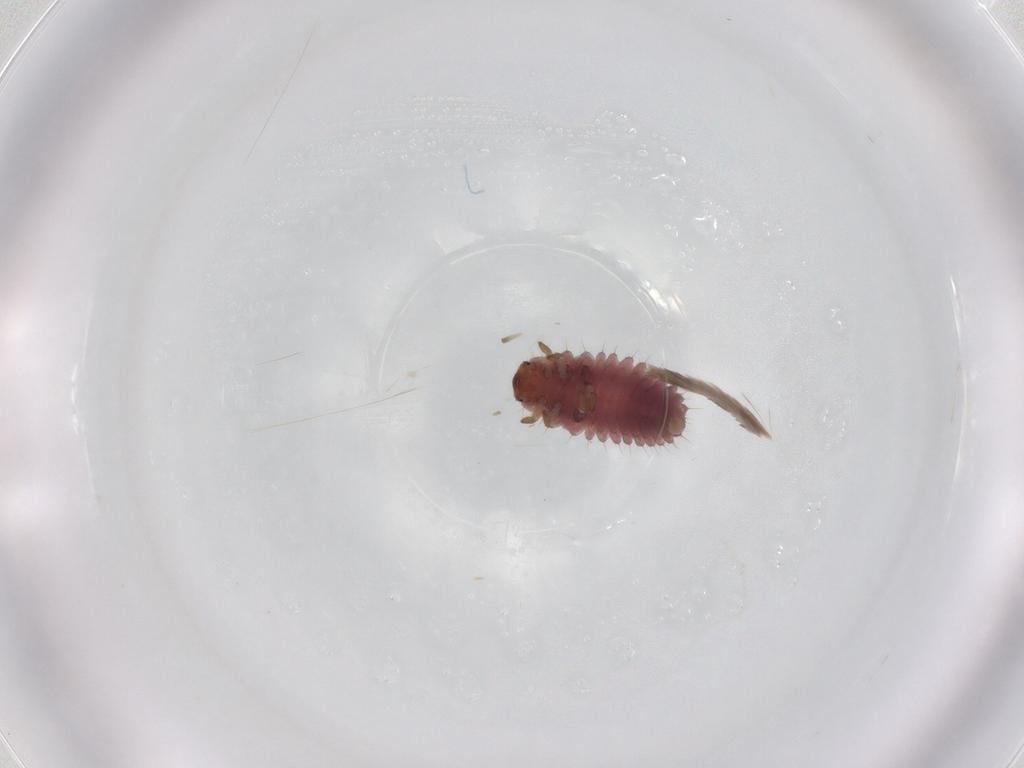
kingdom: Animalia
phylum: Arthropoda
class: Insecta
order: Coleoptera
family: Coccinellidae
